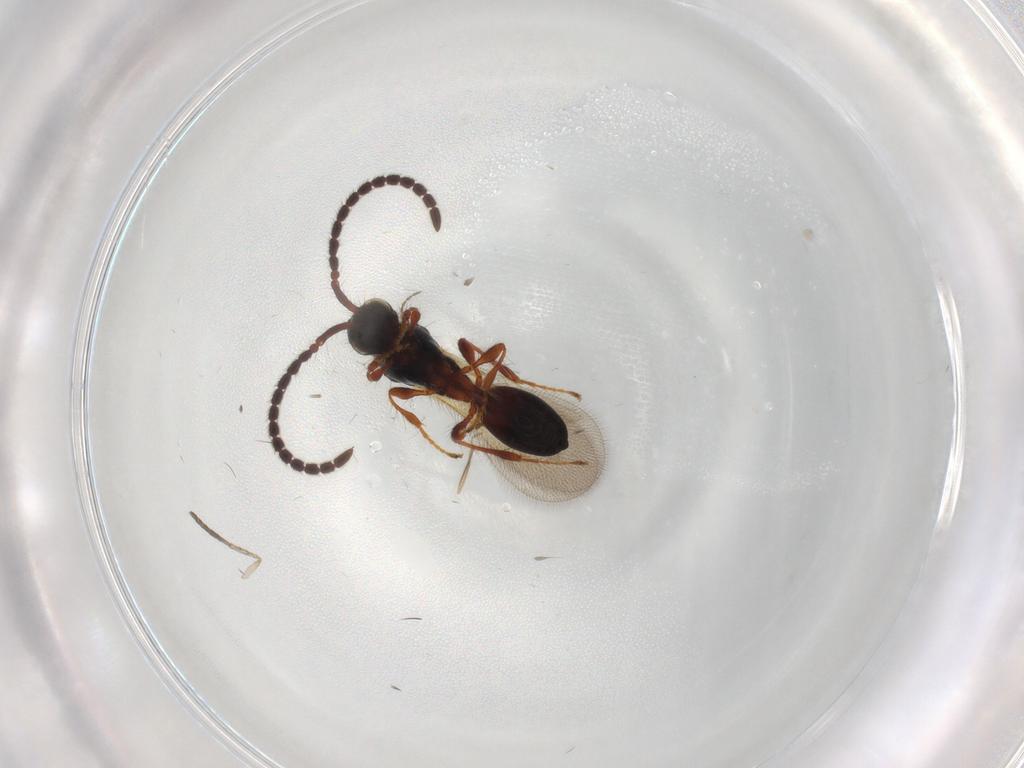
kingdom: Animalia
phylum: Arthropoda
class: Insecta
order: Hymenoptera
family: Diapriidae
